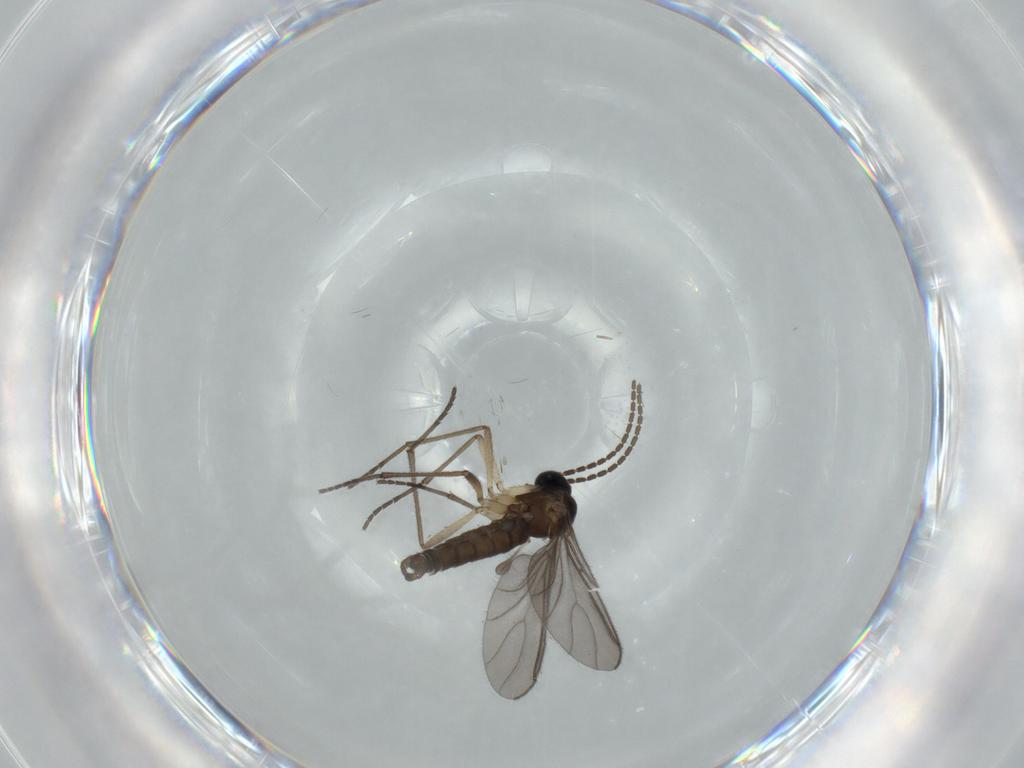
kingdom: Animalia
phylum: Arthropoda
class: Insecta
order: Diptera
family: Sciaridae
